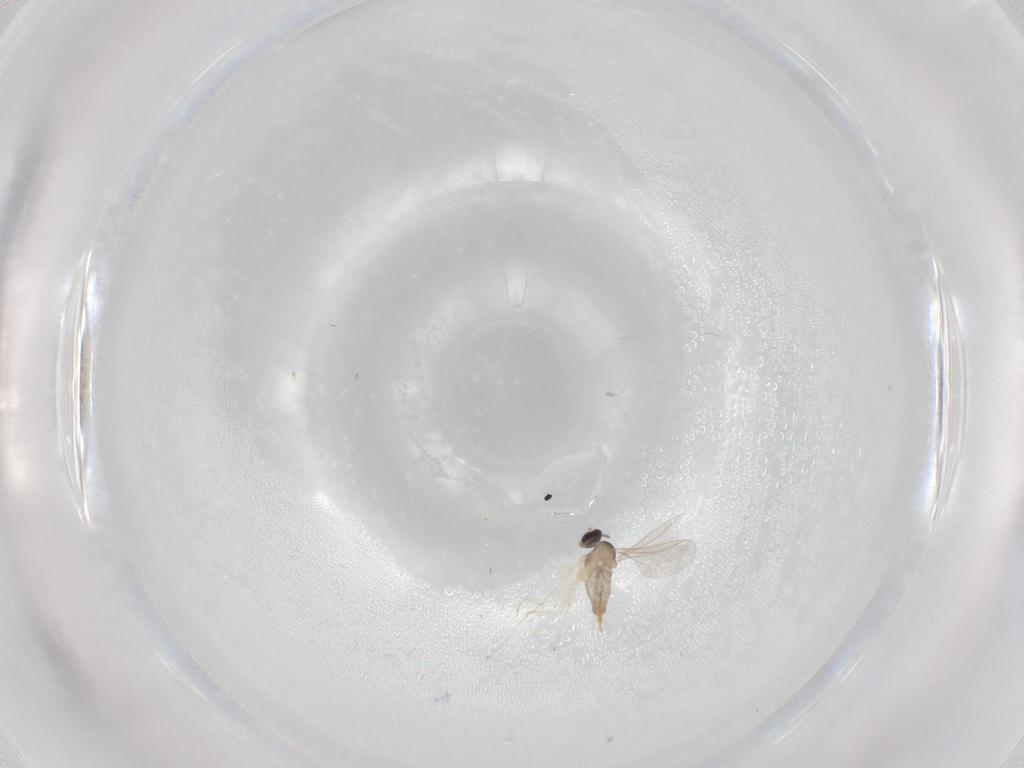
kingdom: Animalia
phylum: Arthropoda
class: Insecta
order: Diptera
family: Cecidomyiidae
